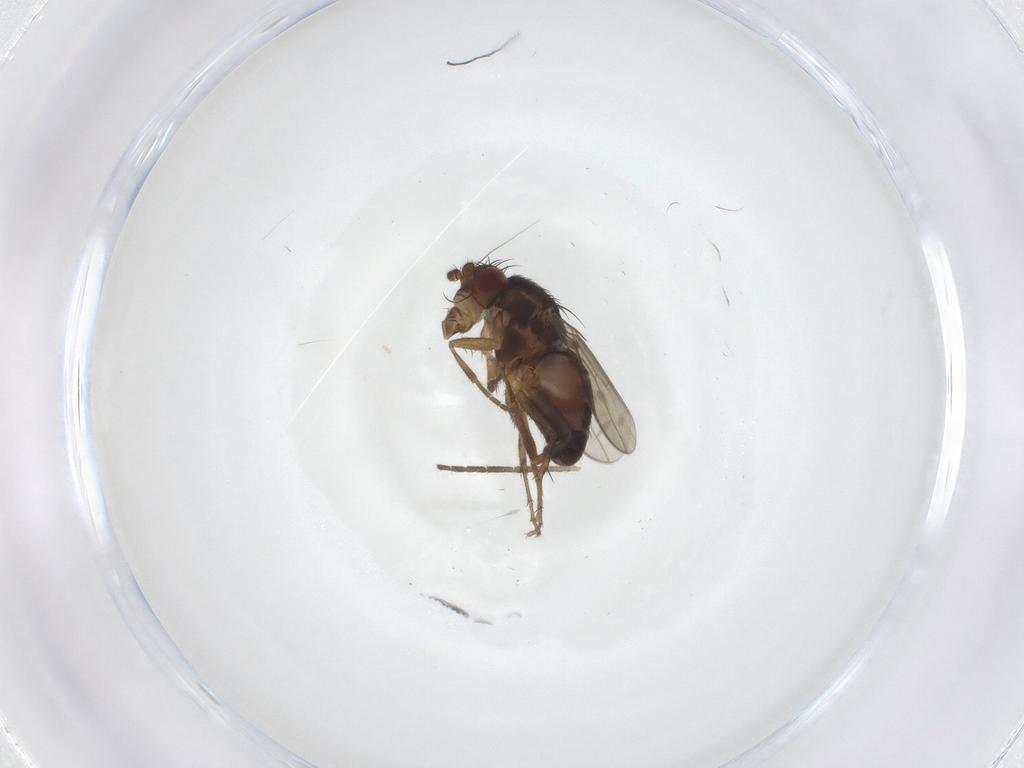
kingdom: Animalia
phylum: Arthropoda
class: Insecta
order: Diptera
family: Sphaeroceridae
